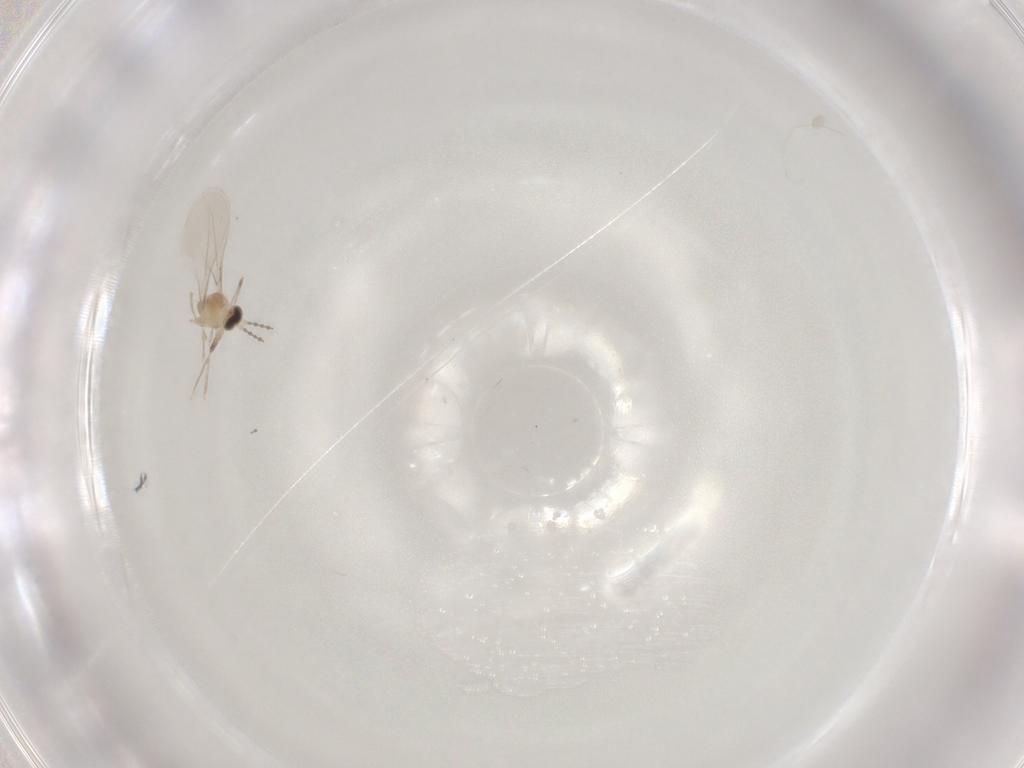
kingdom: Animalia
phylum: Arthropoda
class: Insecta
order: Diptera
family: Cecidomyiidae
